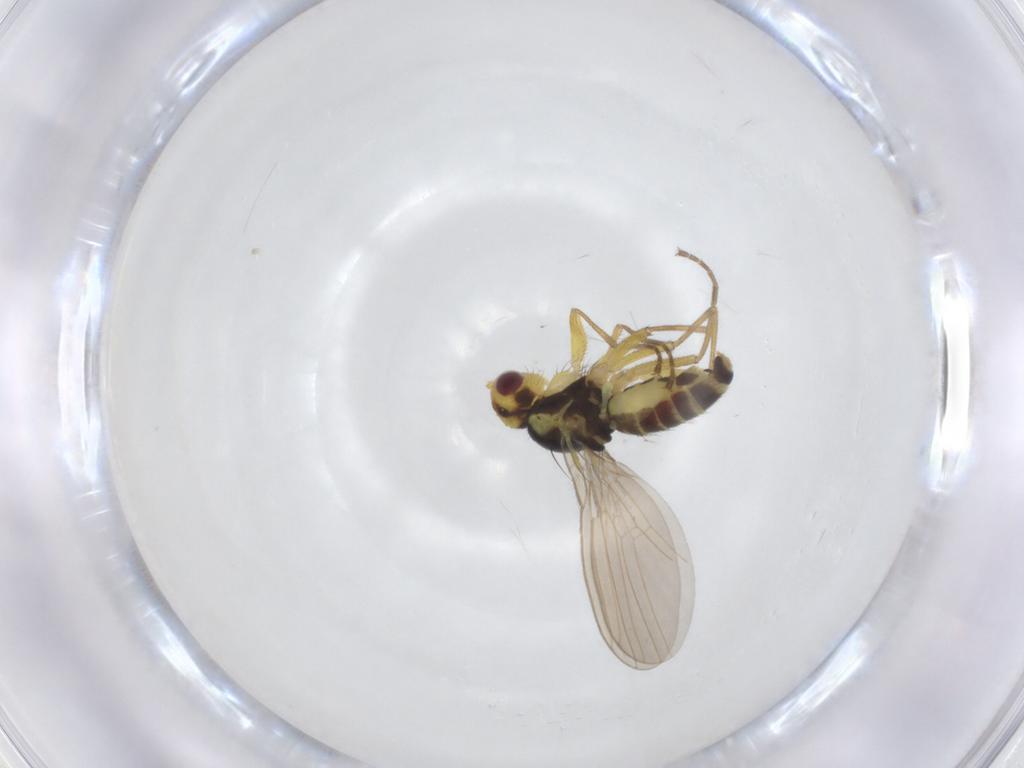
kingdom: Animalia
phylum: Arthropoda
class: Insecta
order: Diptera
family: Agromyzidae
